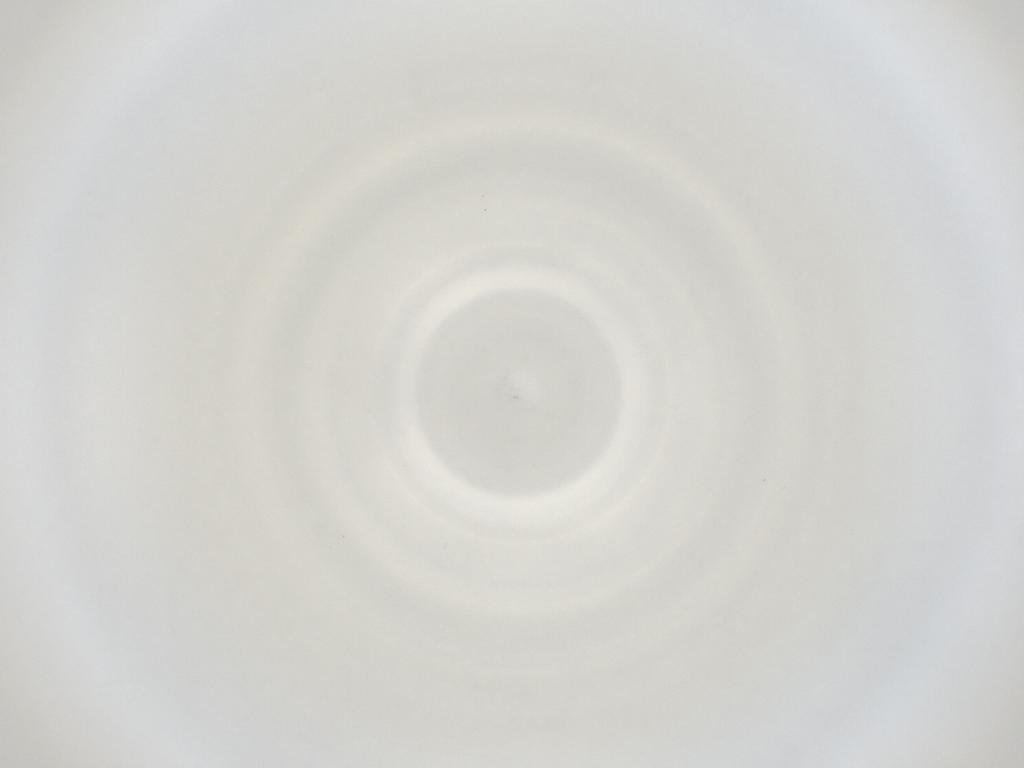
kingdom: Animalia
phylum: Arthropoda
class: Insecta
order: Diptera
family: Cecidomyiidae
